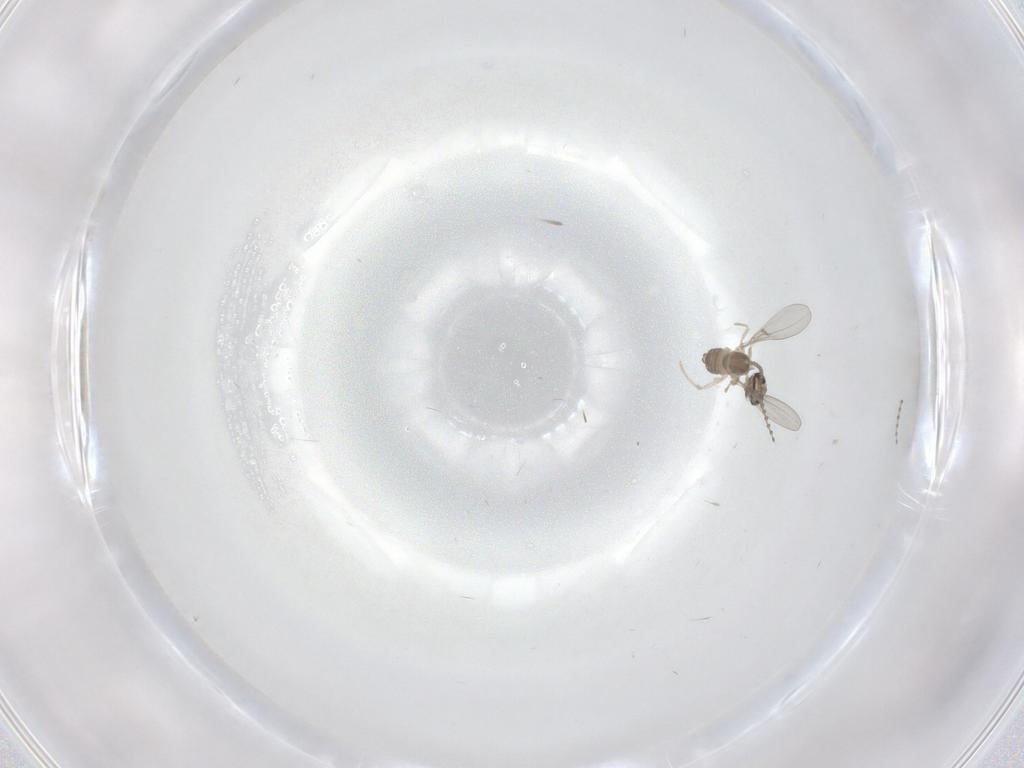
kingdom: Animalia
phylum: Arthropoda
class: Insecta
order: Diptera
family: Cecidomyiidae
